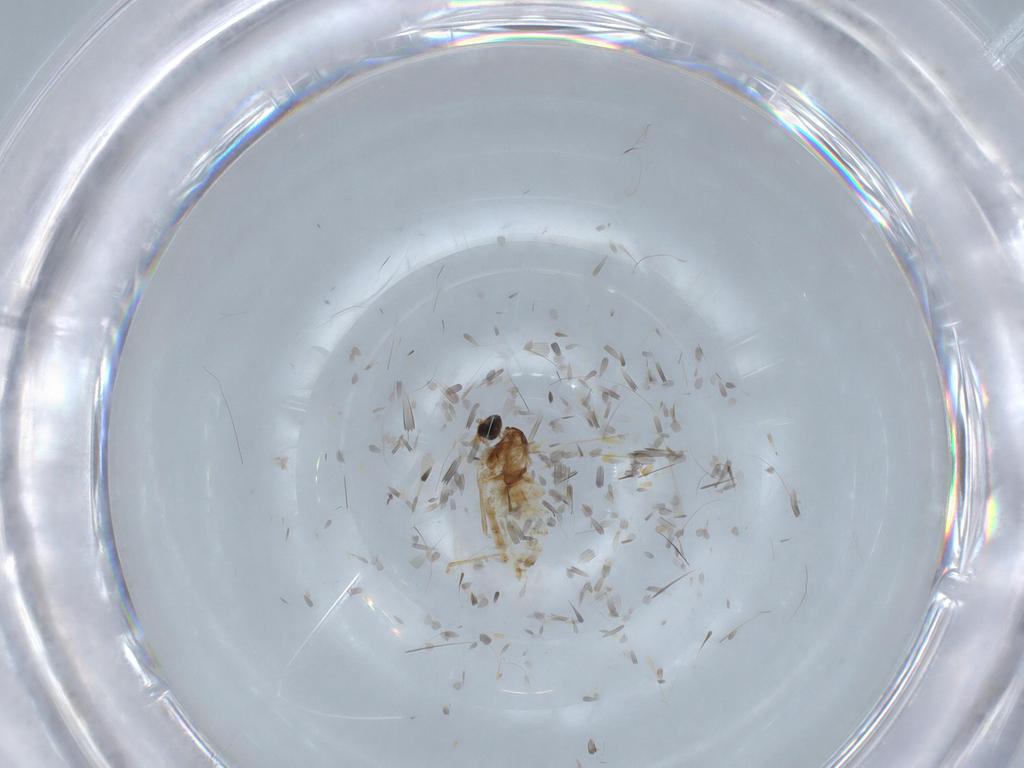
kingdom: Animalia
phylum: Arthropoda
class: Insecta
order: Diptera
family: Cecidomyiidae
